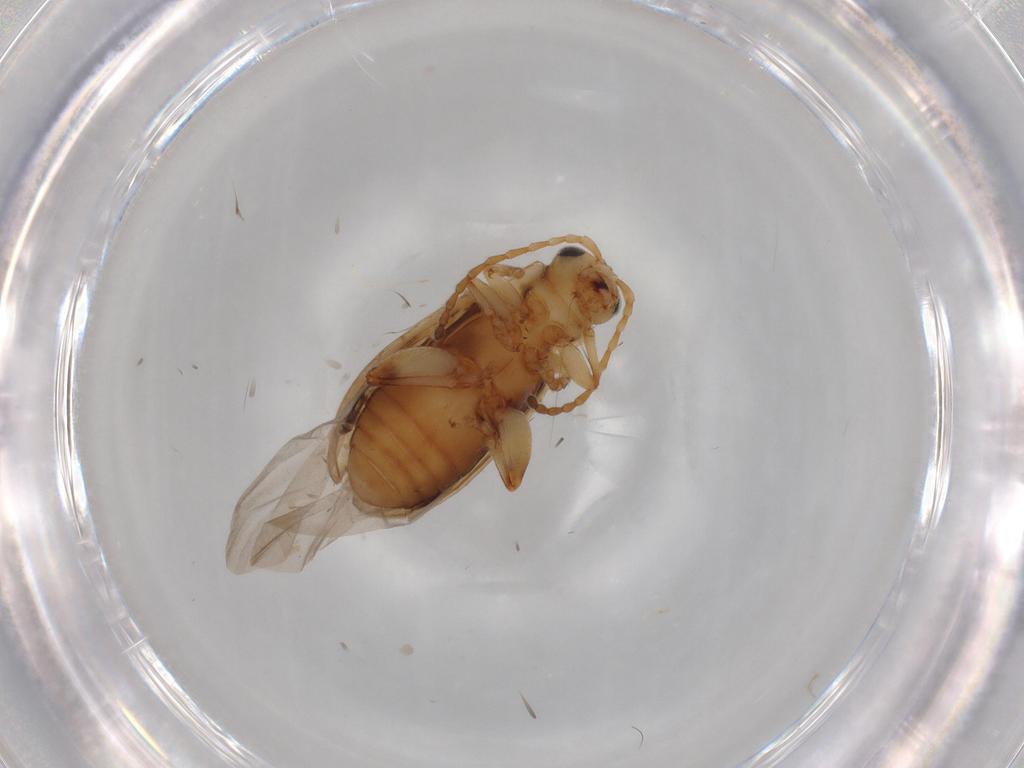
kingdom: Animalia
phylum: Arthropoda
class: Insecta
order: Coleoptera
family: Chrysomelidae
